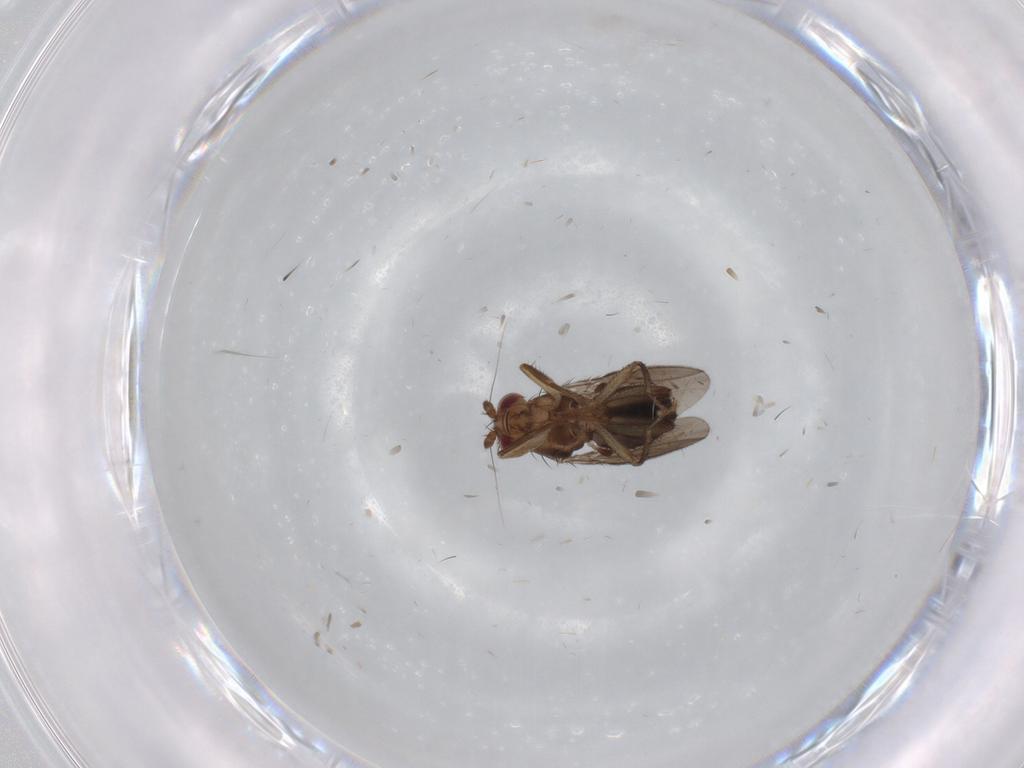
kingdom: Animalia
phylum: Arthropoda
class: Insecta
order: Diptera
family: Sphaeroceridae
